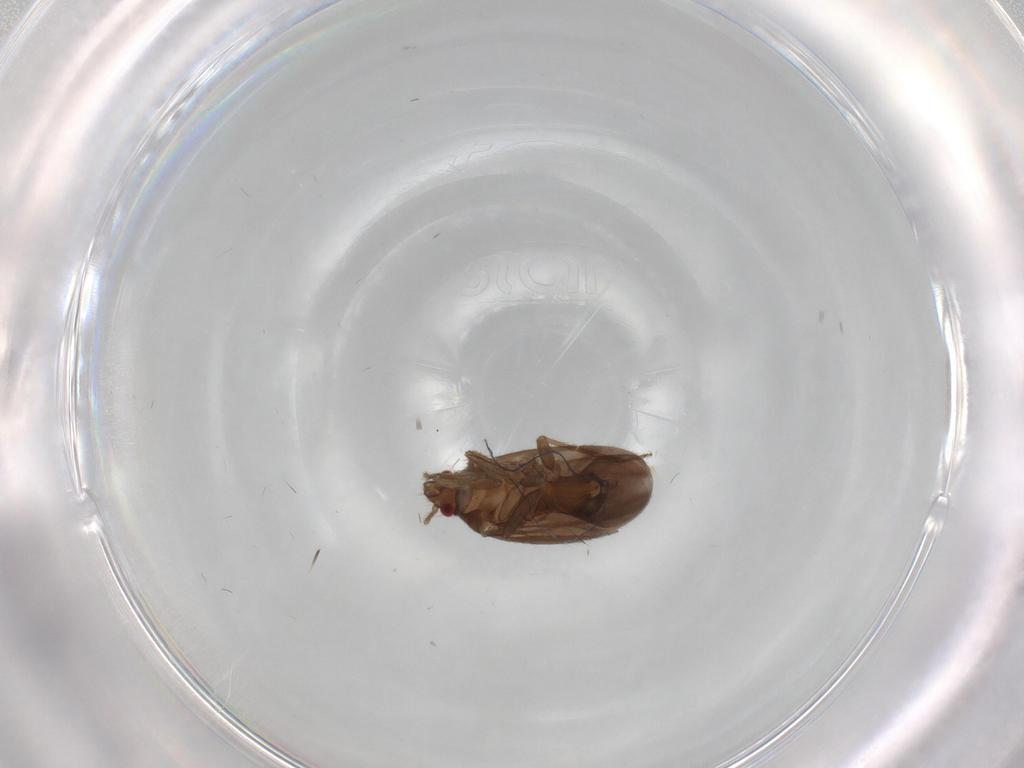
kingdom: Animalia
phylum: Arthropoda
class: Insecta
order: Hemiptera
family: Ceratocombidae
